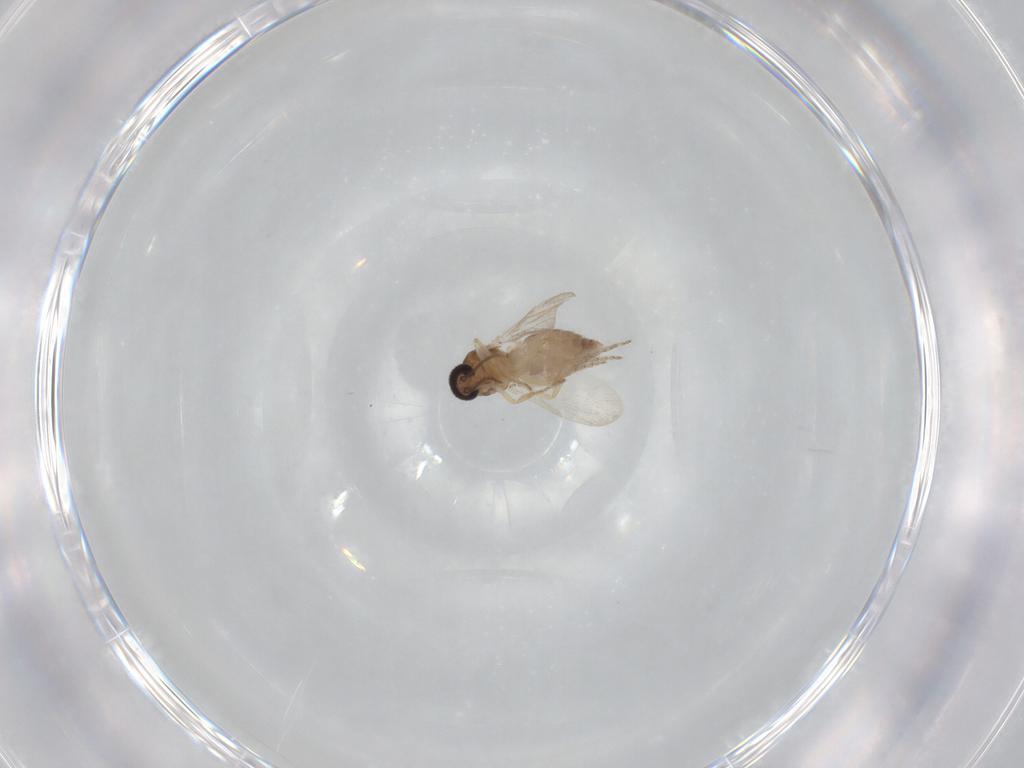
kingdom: Animalia
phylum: Arthropoda
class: Insecta
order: Diptera
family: Ceratopogonidae
